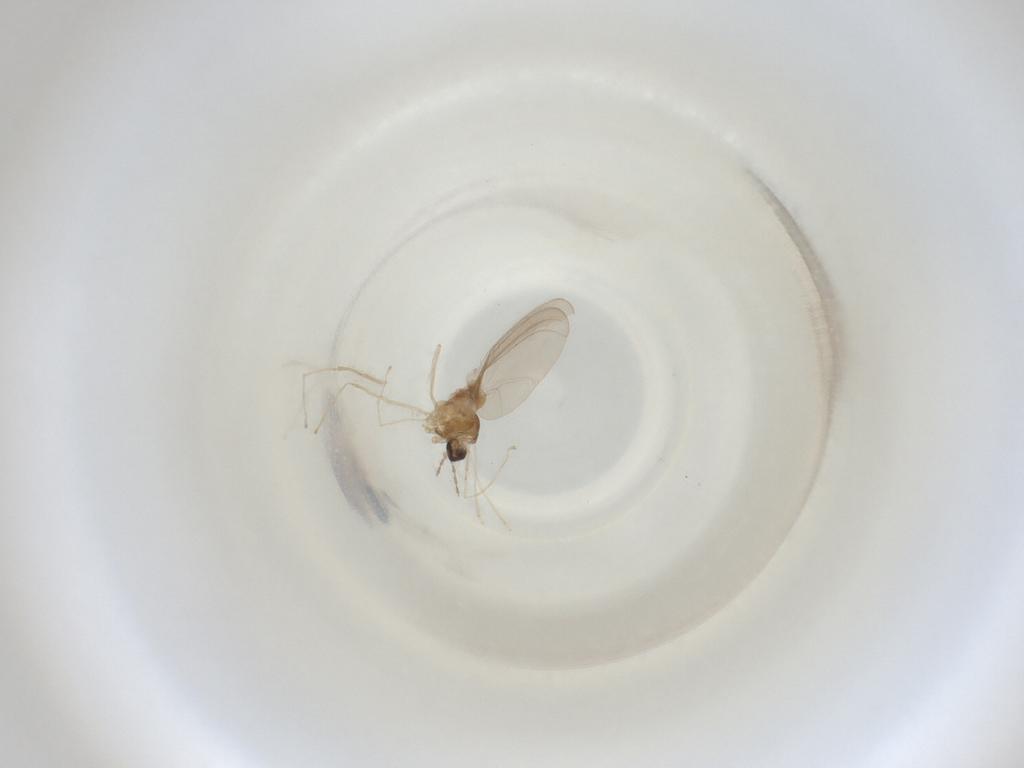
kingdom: Animalia
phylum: Arthropoda
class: Insecta
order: Diptera
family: Cecidomyiidae
